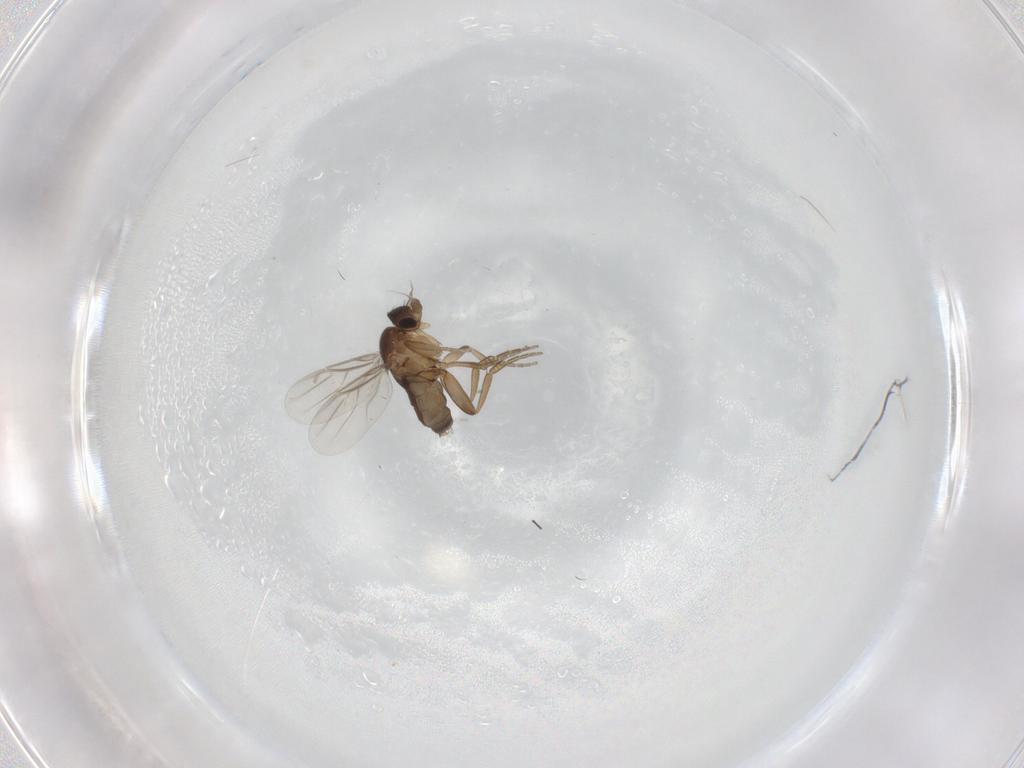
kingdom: Animalia
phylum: Arthropoda
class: Insecta
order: Diptera
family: Phoridae
